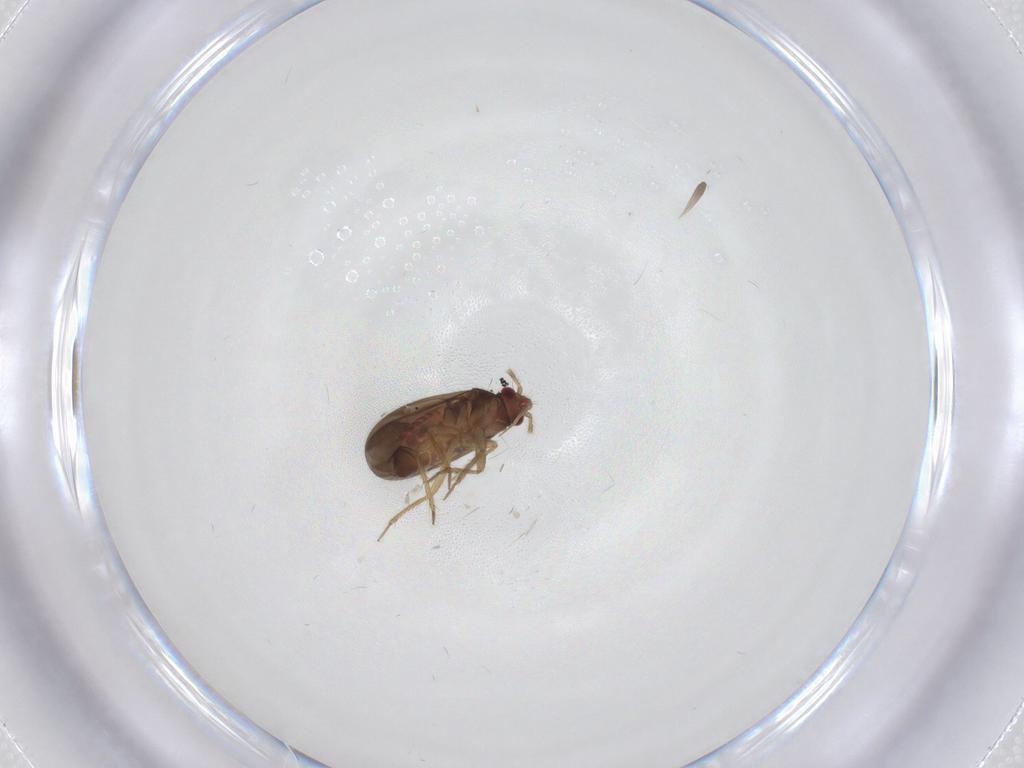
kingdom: Animalia
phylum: Arthropoda
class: Insecta
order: Hemiptera
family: Ceratocombidae
